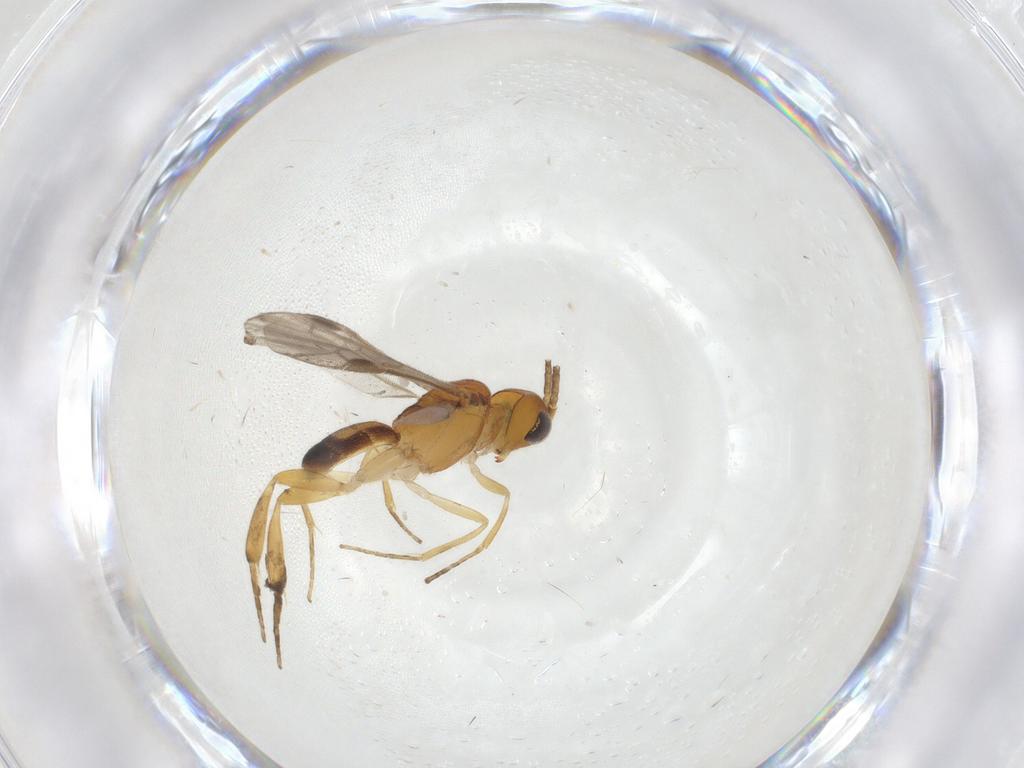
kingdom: Animalia
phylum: Arthropoda
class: Insecta
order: Hymenoptera
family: Braconidae
